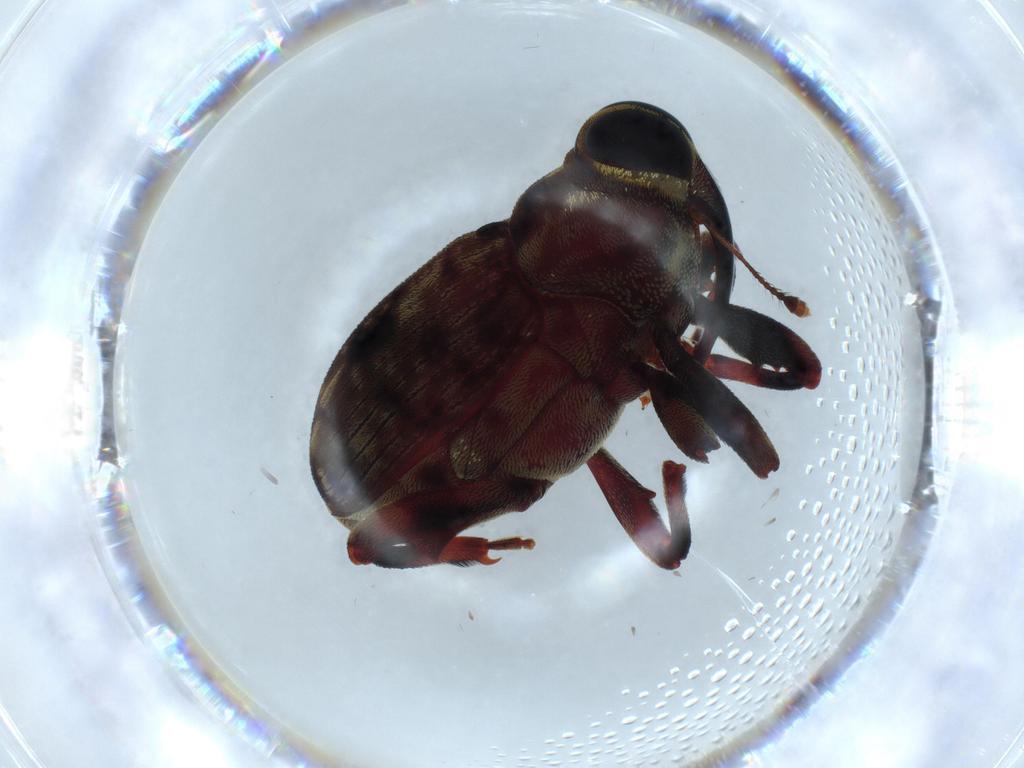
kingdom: Animalia
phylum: Arthropoda
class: Insecta
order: Coleoptera
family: Curculionidae
